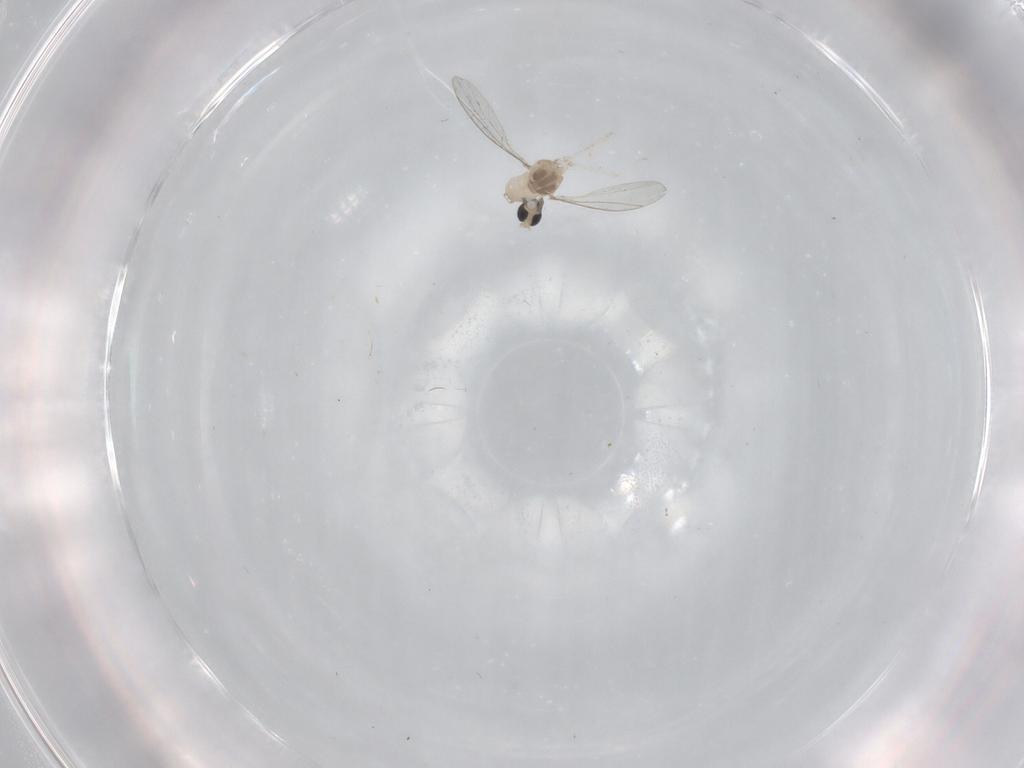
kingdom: Animalia
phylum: Arthropoda
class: Insecta
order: Diptera
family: Cecidomyiidae
